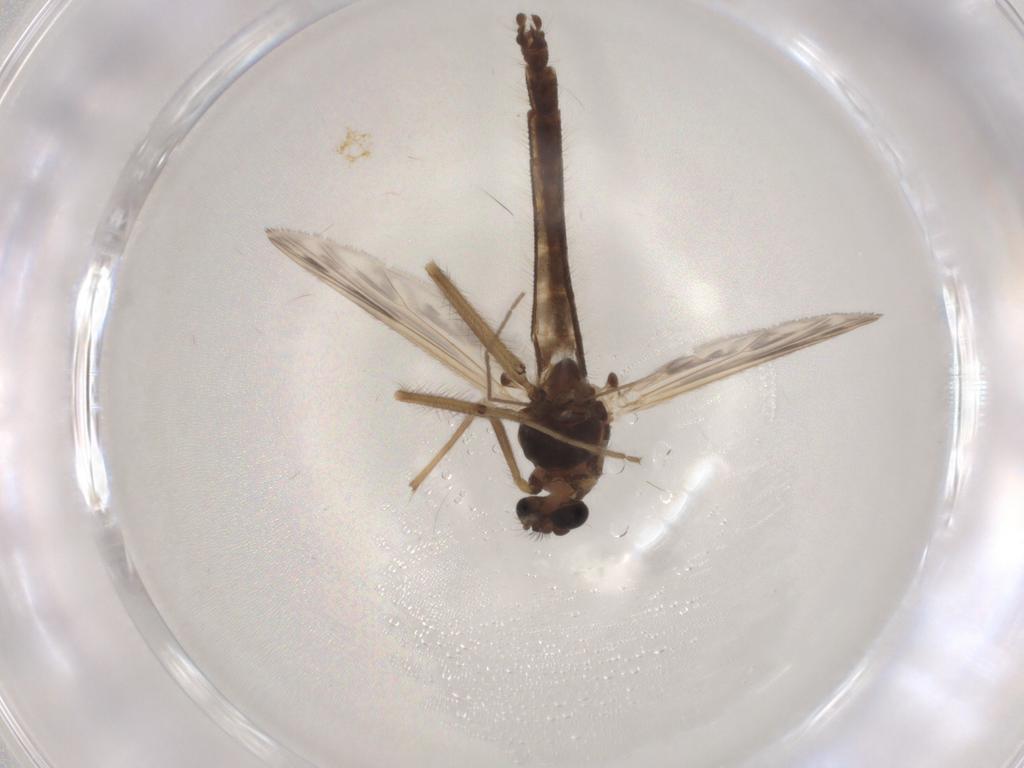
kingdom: Animalia
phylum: Arthropoda
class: Insecta
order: Diptera
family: Chironomidae
